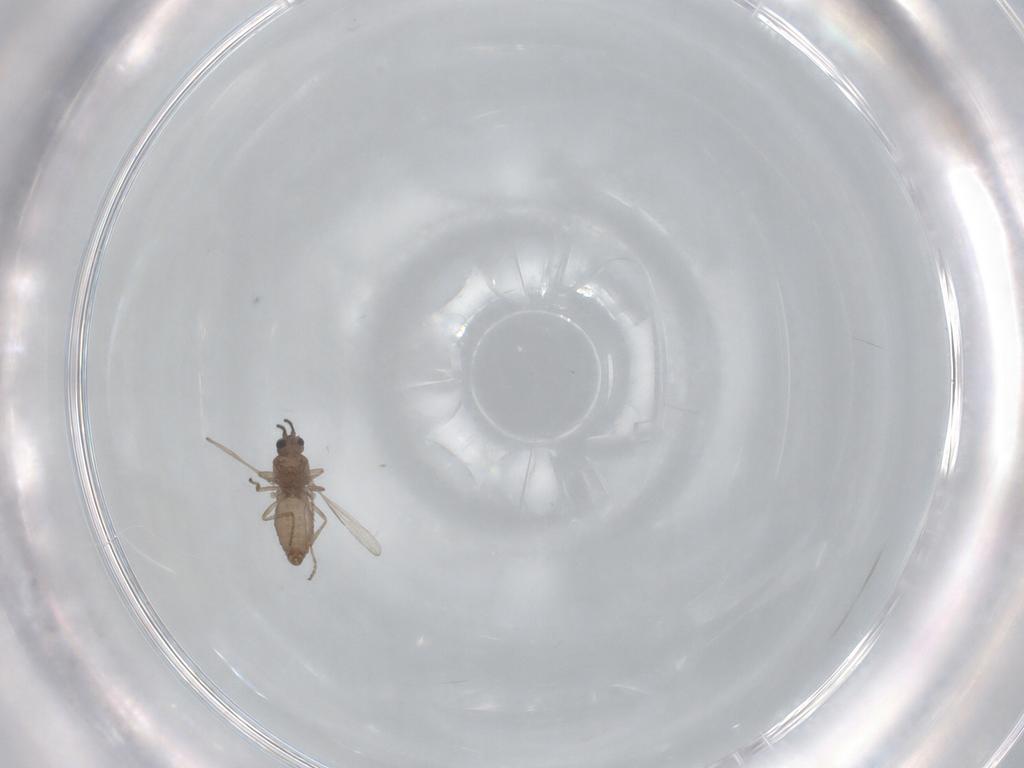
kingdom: Animalia
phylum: Arthropoda
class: Insecta
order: Diptera
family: Ceratopogonidae
